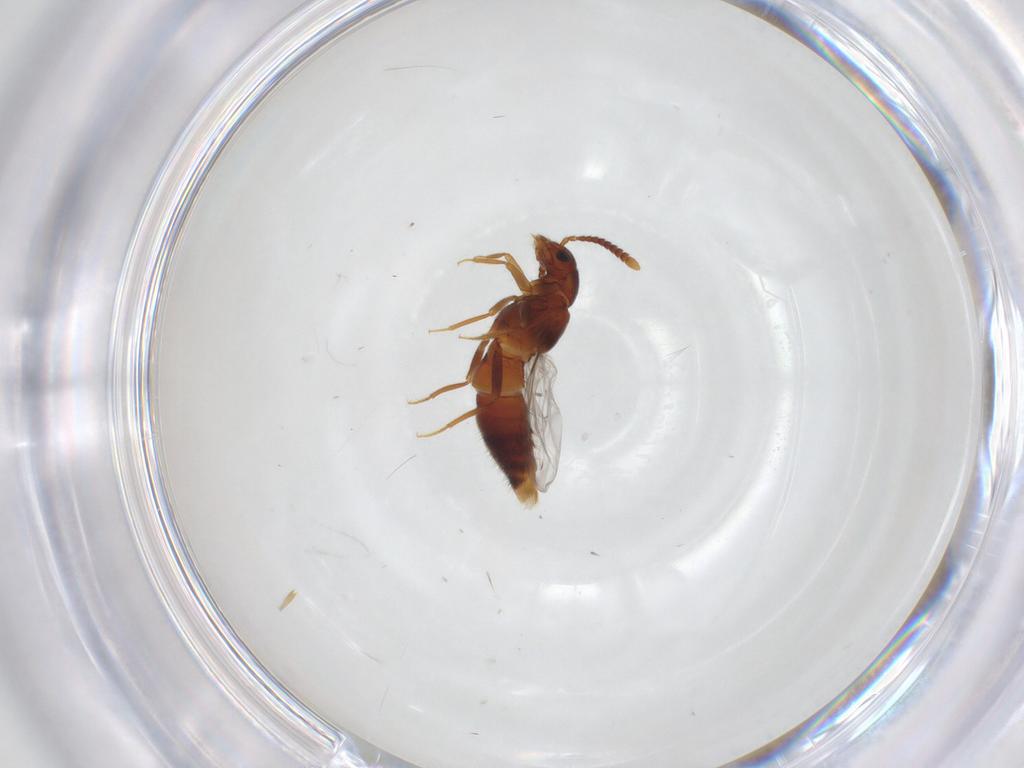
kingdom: Animalia
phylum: Arthropoda
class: Insecta
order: Coleoptera
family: Staphylinidae
